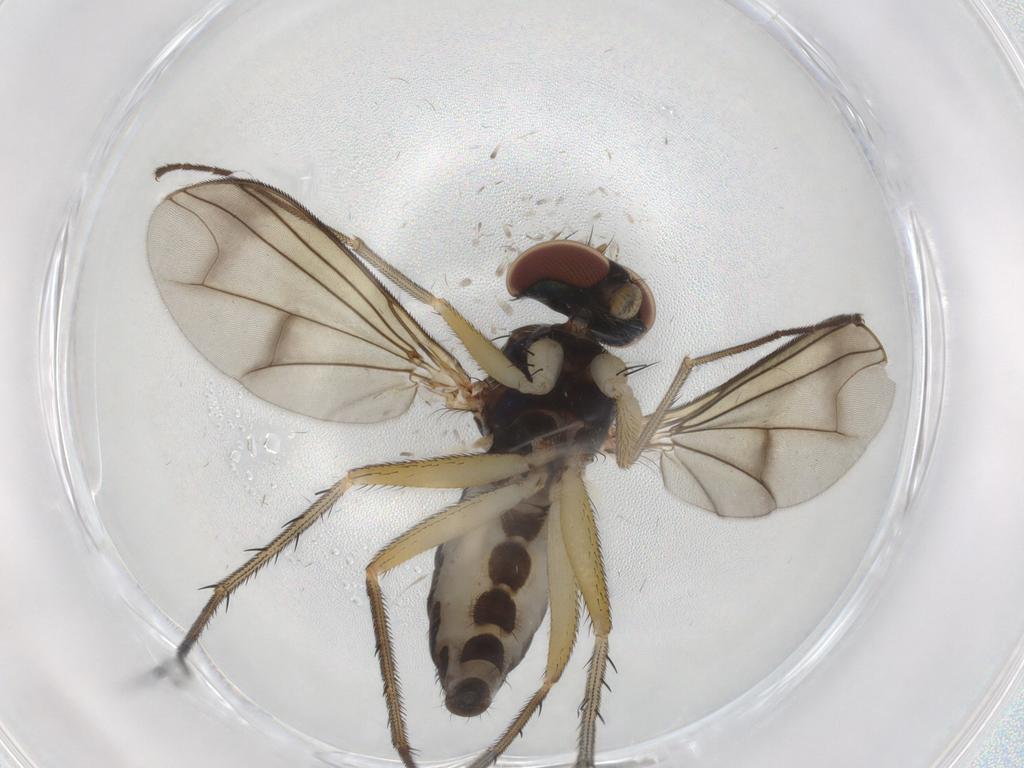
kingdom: Animalia
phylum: Arthropoda
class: Insecta
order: Diptera
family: Dolichopodidae
